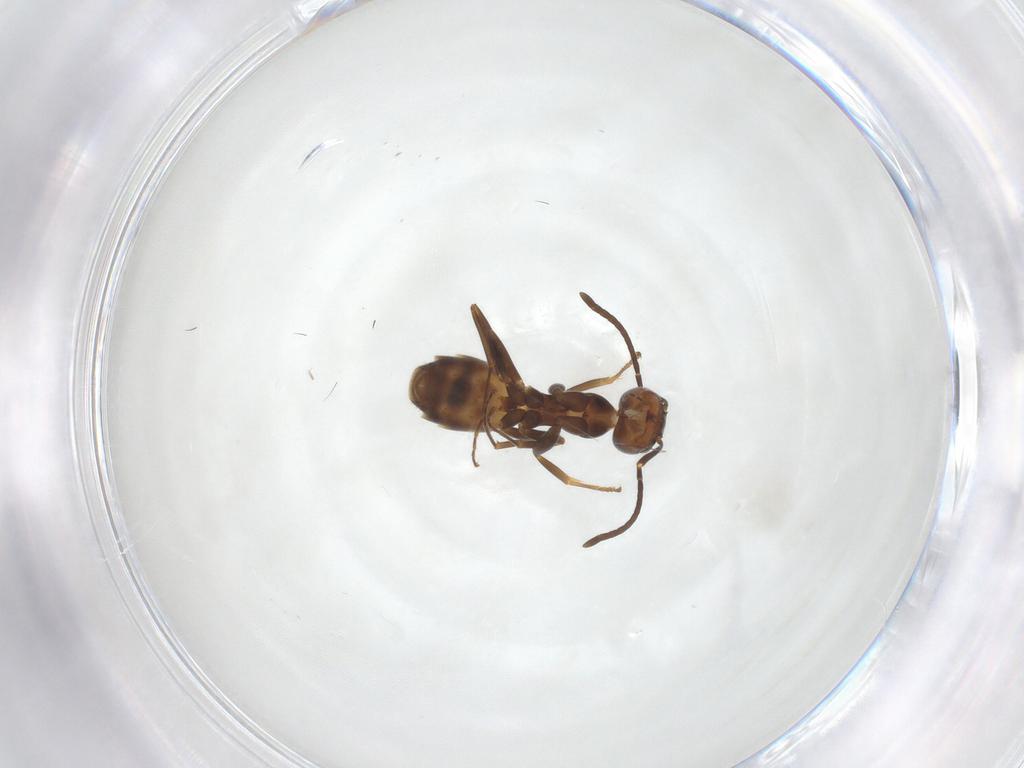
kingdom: Animalia
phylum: Arthropoda
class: Insecta
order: Hymenoptera
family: Formicidae
